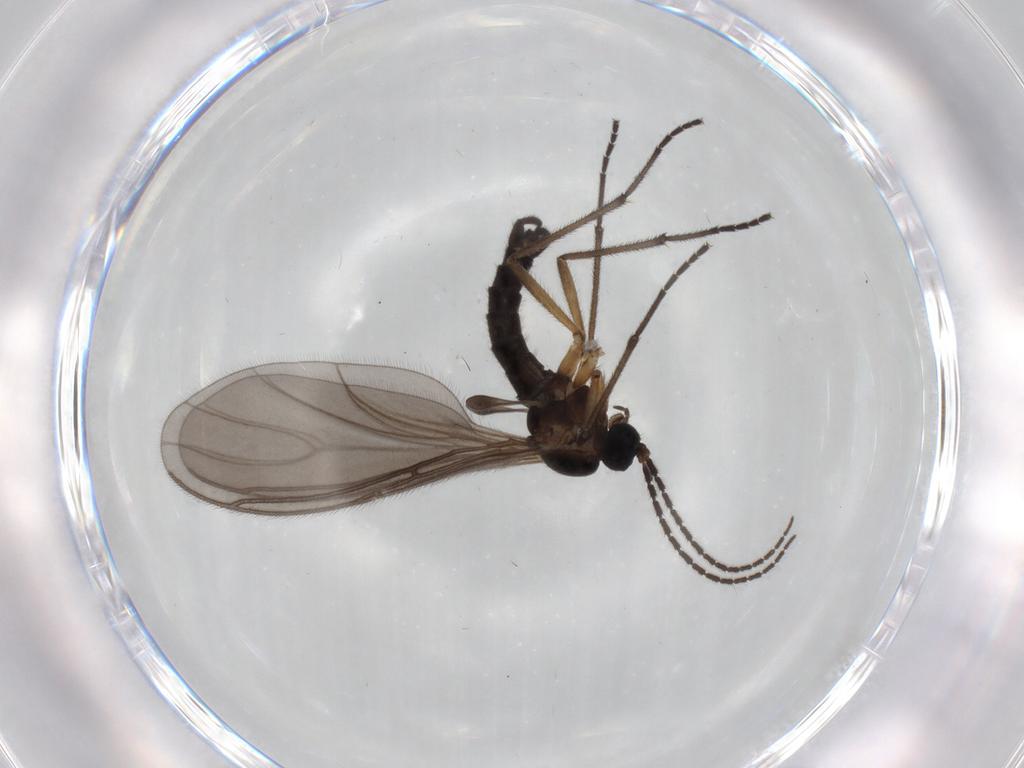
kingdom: Animalia
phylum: Arthropoda
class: Insecta
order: Diptera
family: Sciaridae
